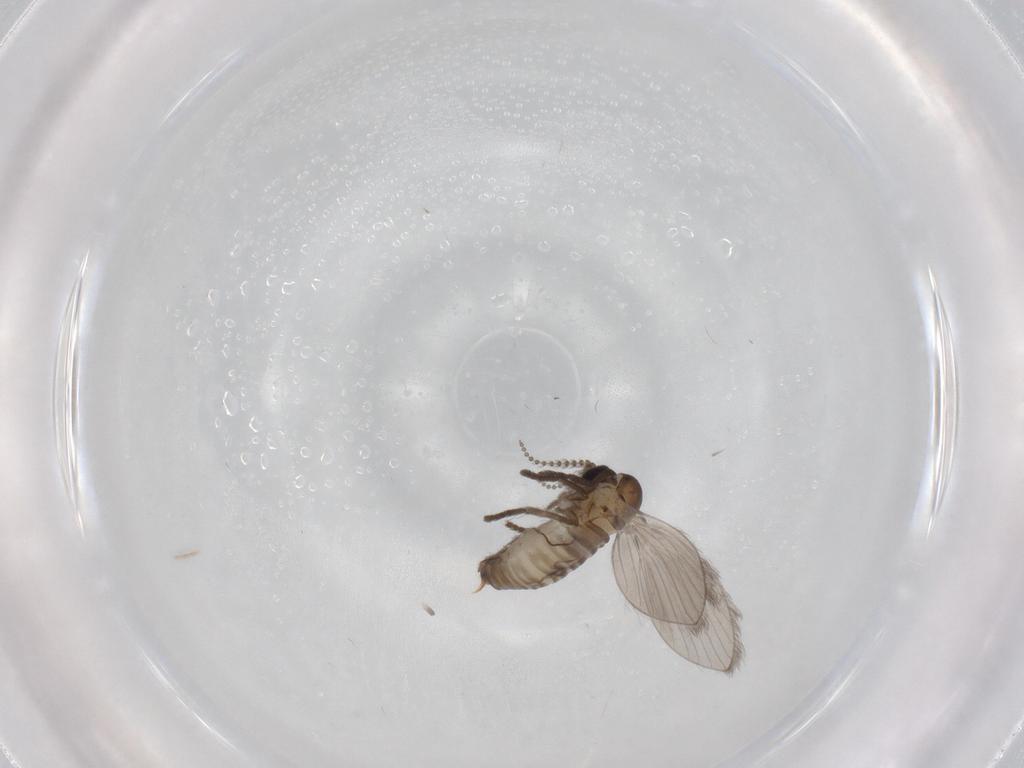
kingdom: Animalia
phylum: Arthropoda
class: Insecta
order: Diptera
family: Psychodidae
